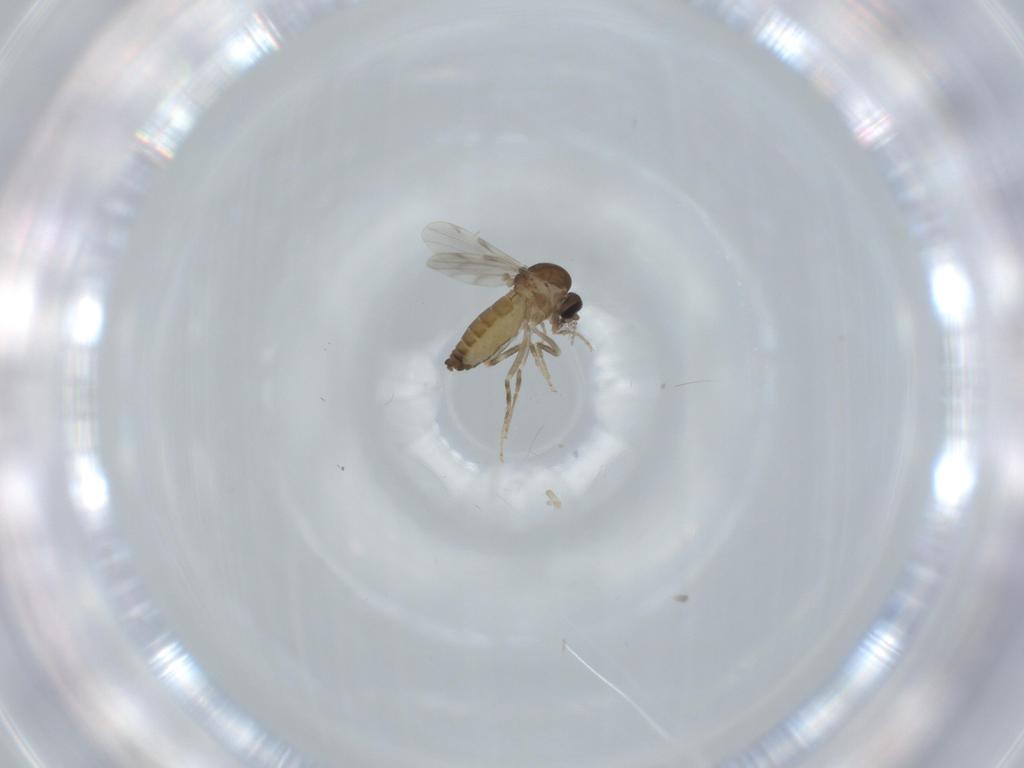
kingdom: Animalia
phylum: Arthropoda
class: Insecta
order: Diptera
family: Ceratopogonidae
